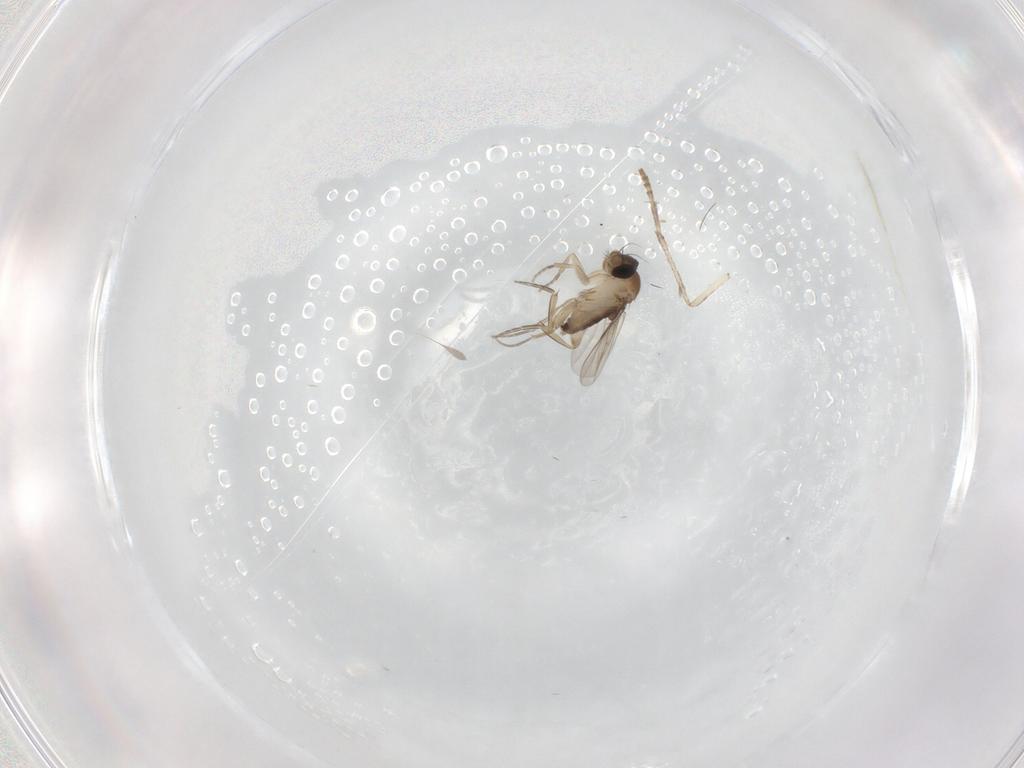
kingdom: Animalia
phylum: Arthropoda
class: Insecta
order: Diptera
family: Phoridae
